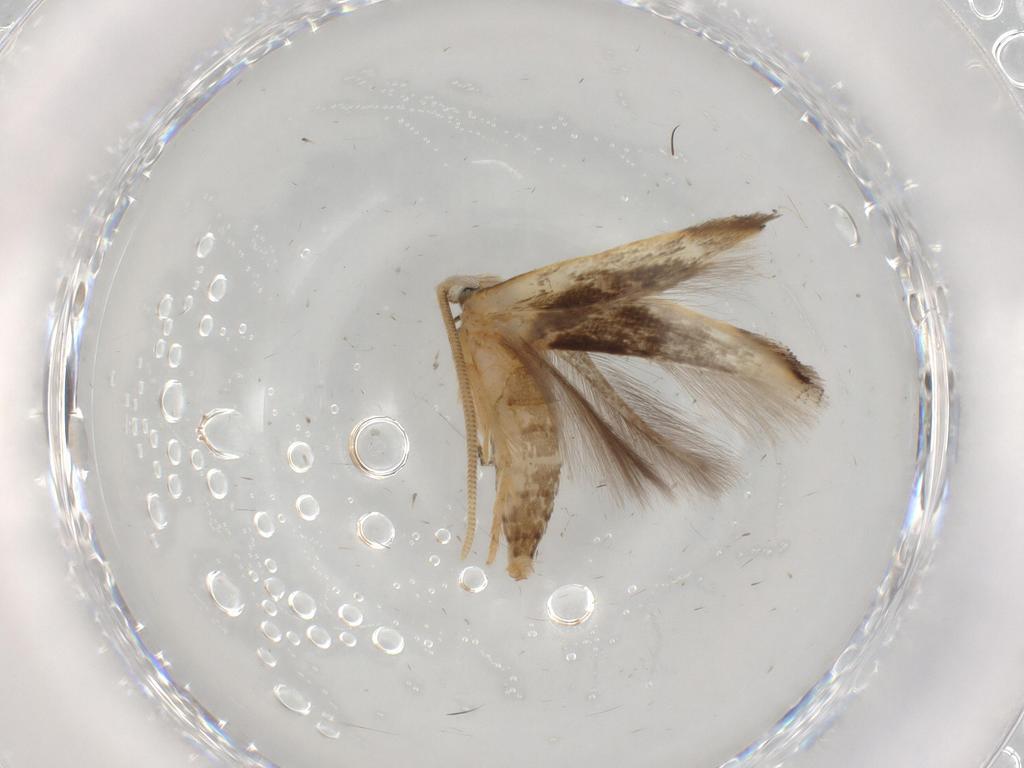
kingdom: Animalia
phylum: Arthropoda
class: Insecta
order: Lepidoptera
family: Opostegidae
